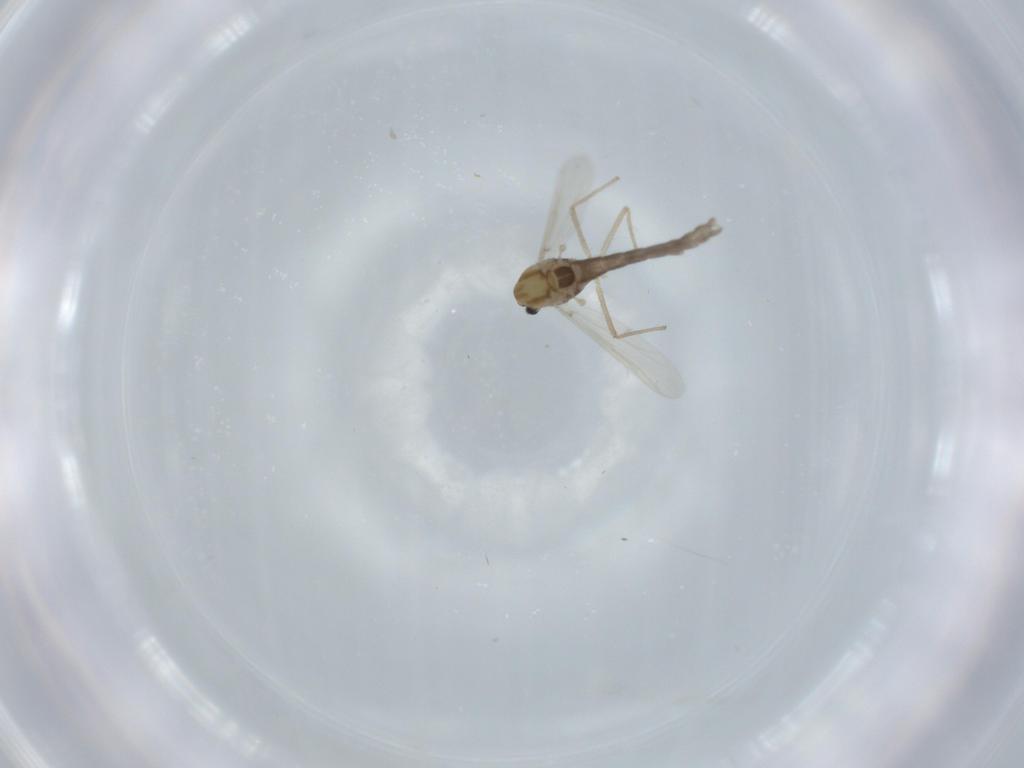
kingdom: Animalia
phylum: Arthropoda
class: Insecta
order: Diptera
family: Chironomidae
